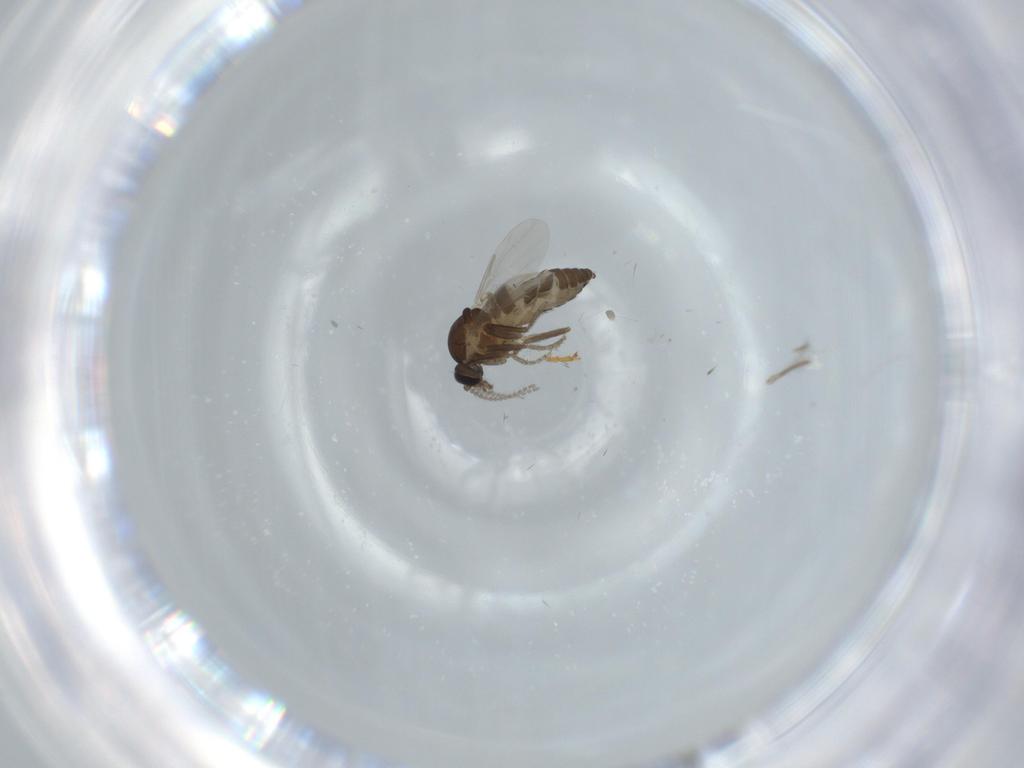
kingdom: Animalia
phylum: Arthropoda
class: Insecta
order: Diptera
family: Ceratopogonidae
